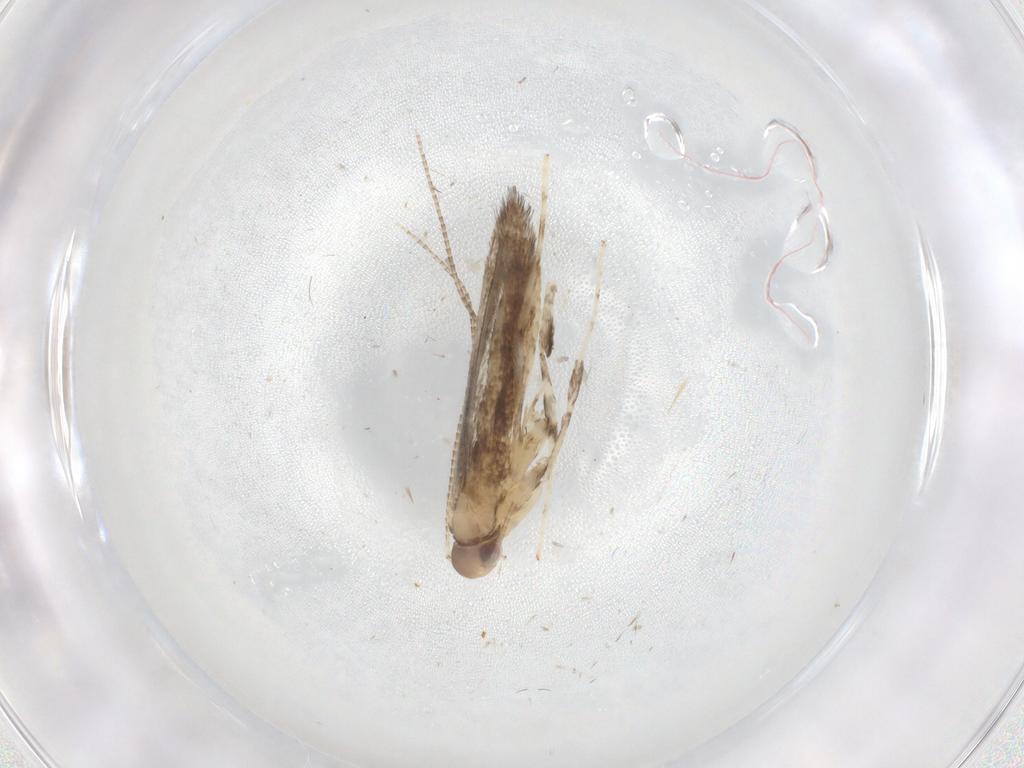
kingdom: Animalia
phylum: Arthropoda
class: Insecta
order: Lepidoptera
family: Gracillariidae
